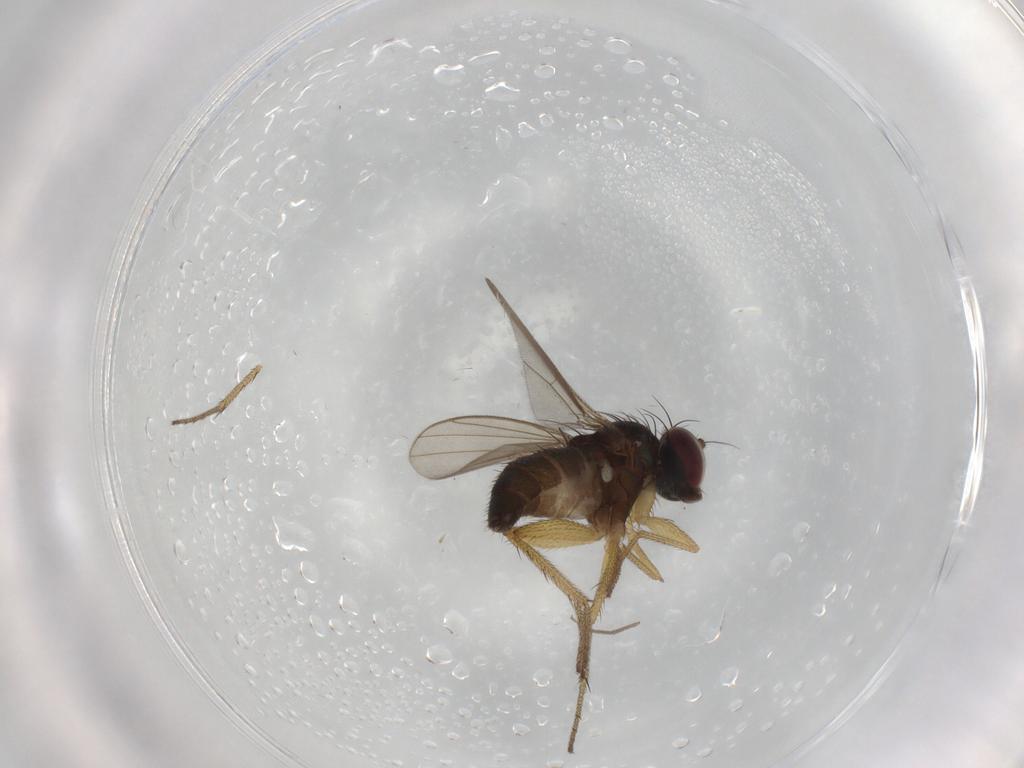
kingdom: Animalia
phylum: Arthropoda
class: Insecta
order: Diptera
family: Dolichopodidae
